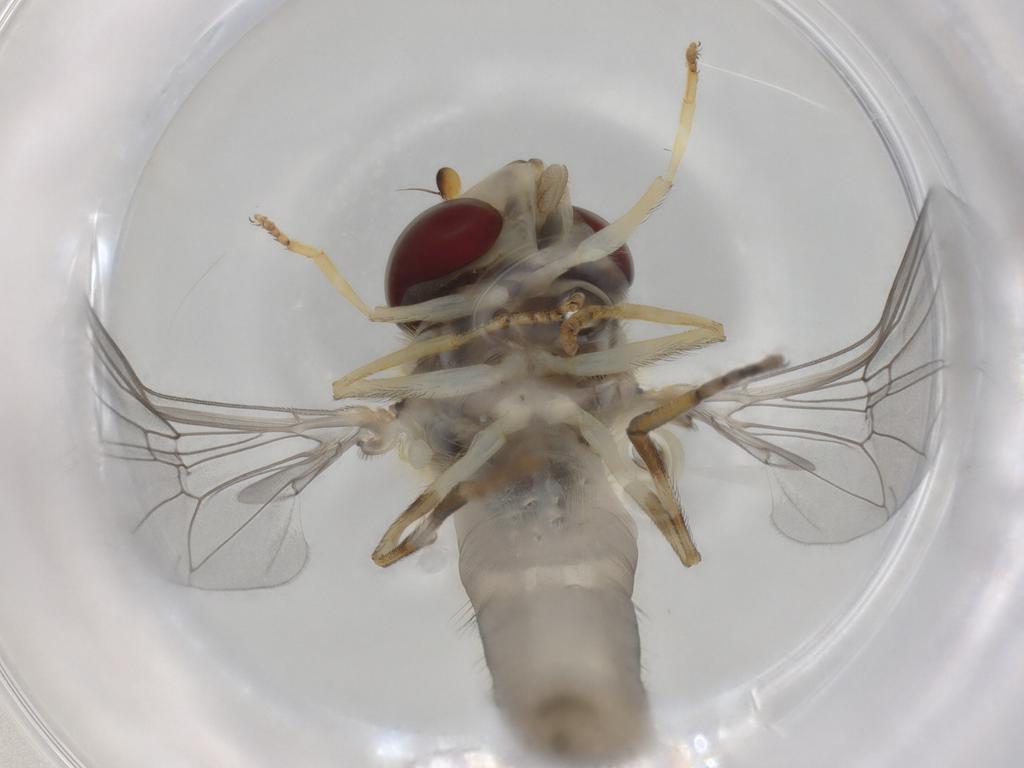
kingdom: Animalia
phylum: Arthropoda
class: Insecta
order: Diptera
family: Syrphidae
